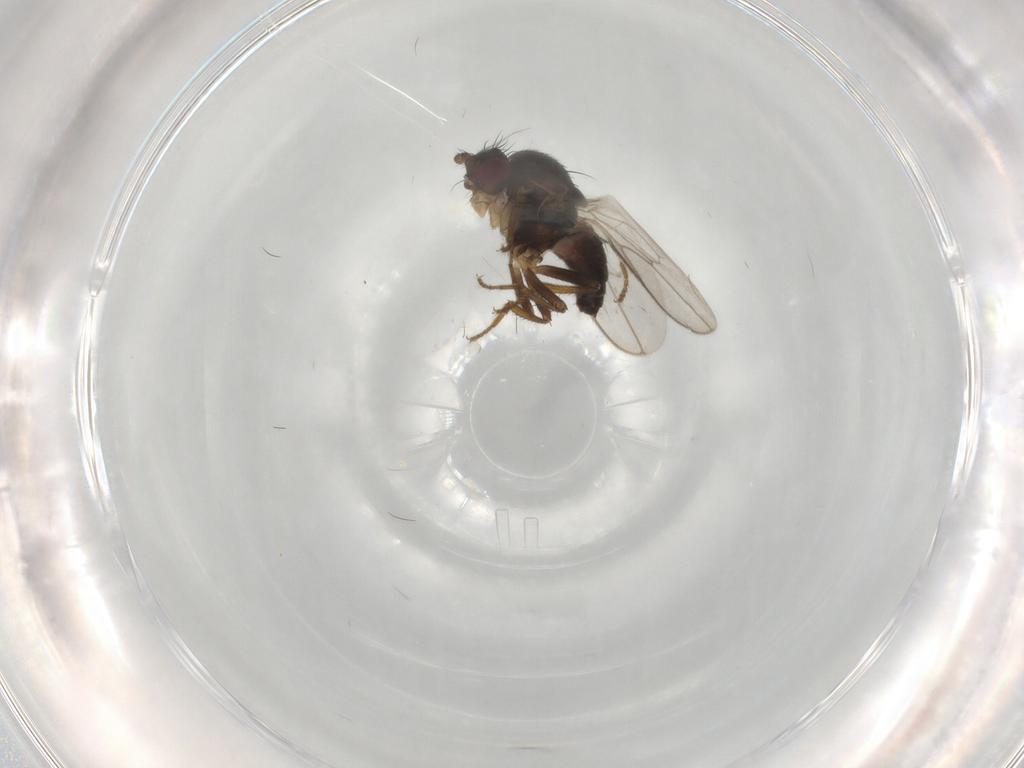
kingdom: Animalia
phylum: Arthropoda
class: Insecta
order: Diptera
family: Sphaeroceridae
